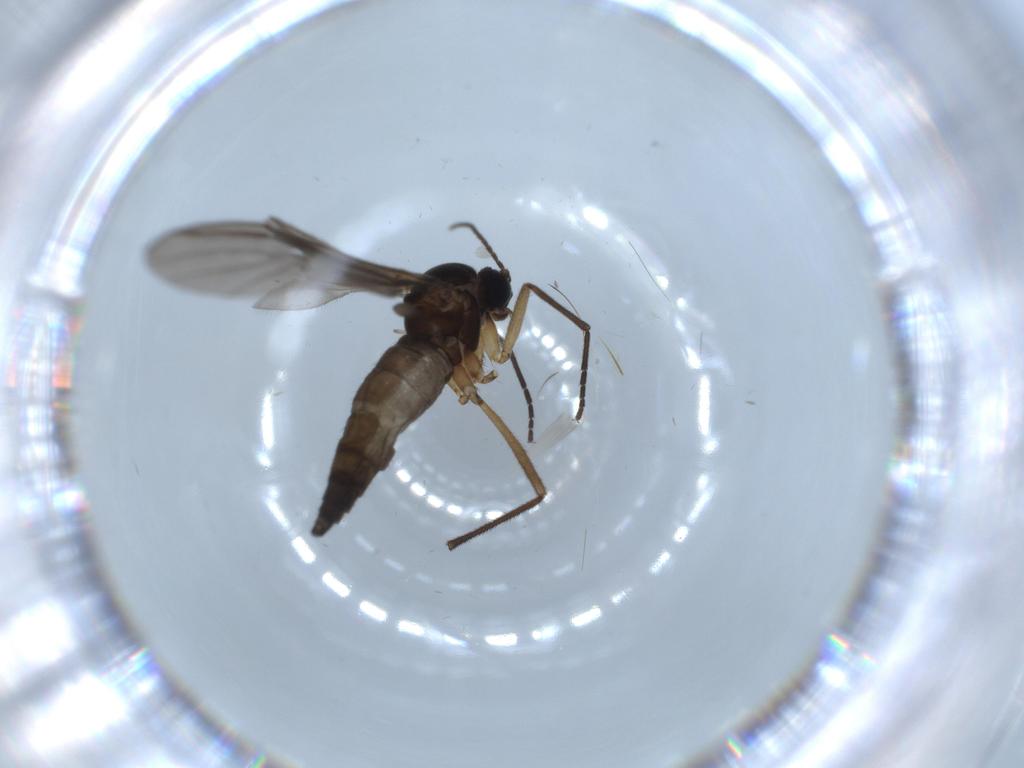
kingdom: Animalia
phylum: Arthropoda
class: Insecta
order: Diptera
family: Sciaridae
